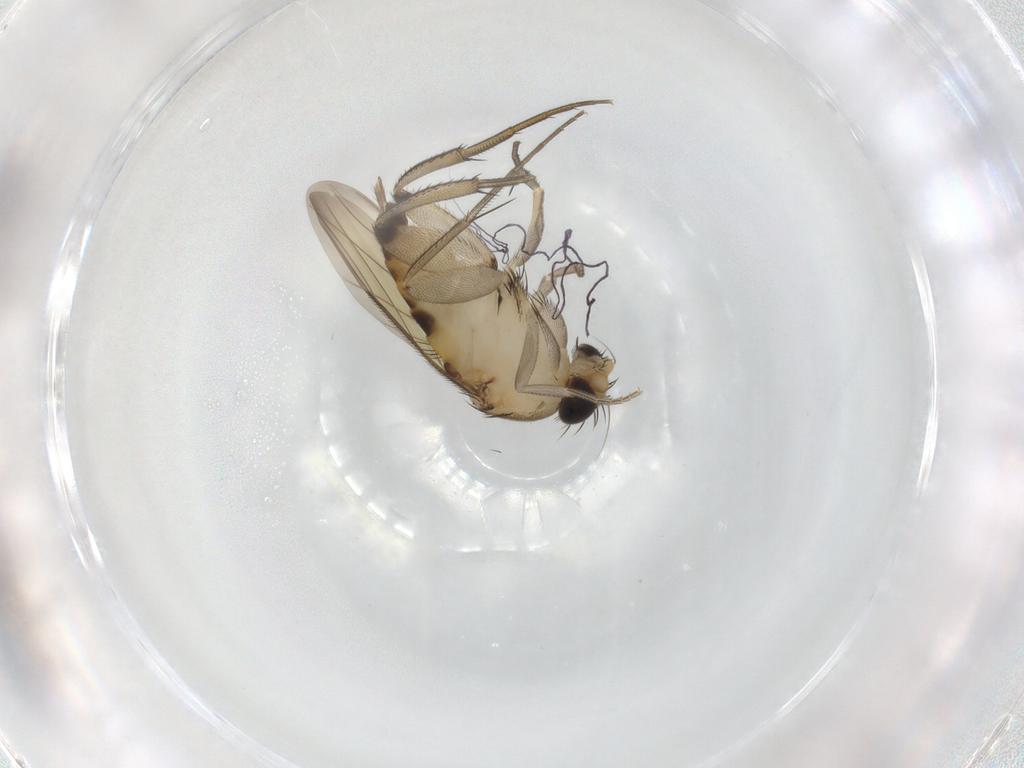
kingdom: Animalia
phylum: Arthropoda
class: Insecta
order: Diptera
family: Phoridae
